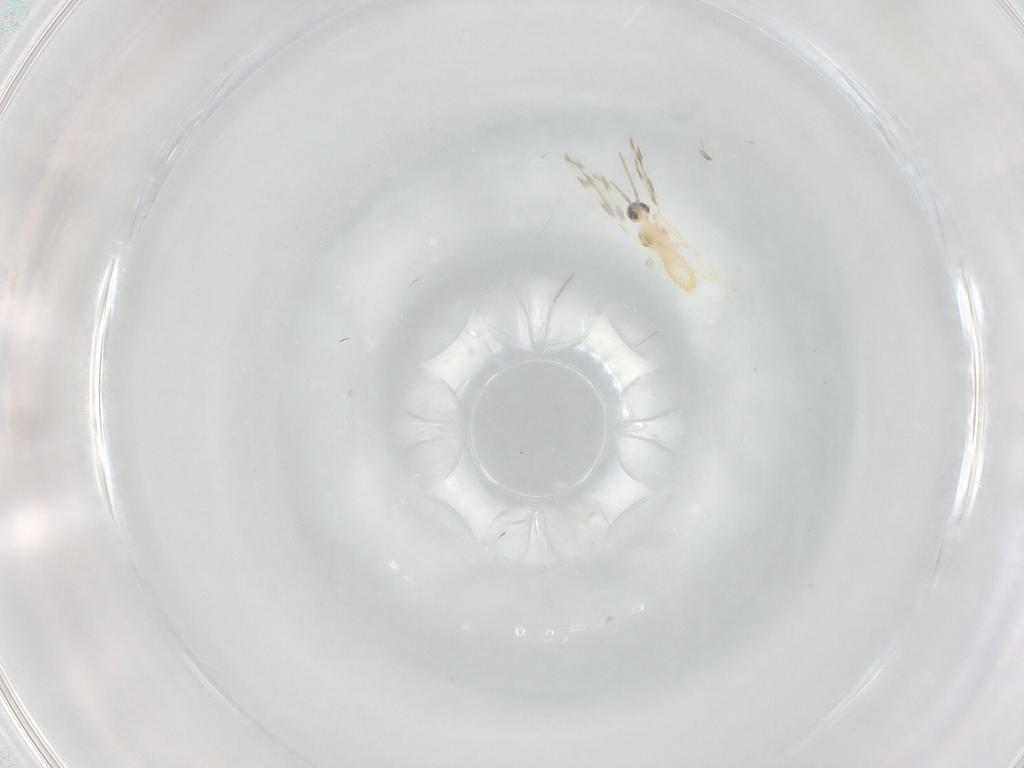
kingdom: Animalia
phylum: Arthropoda
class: Insecta
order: Diptera
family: Cecidomyiidae
